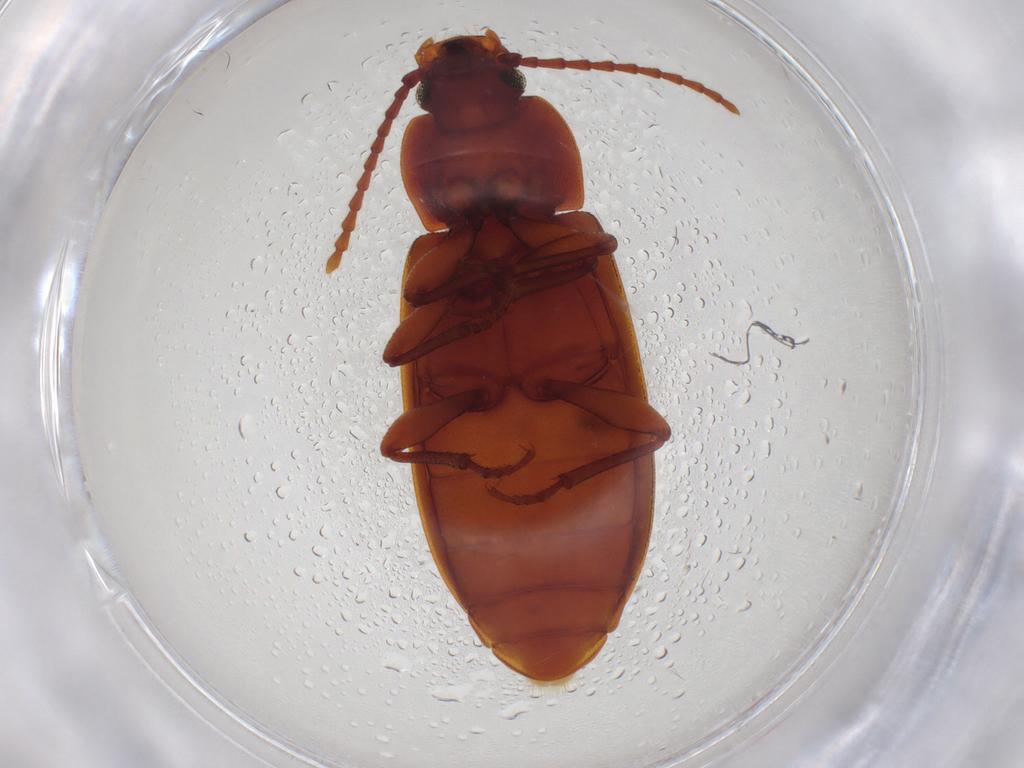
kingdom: Animalia
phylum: Arthropoda
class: Insecta
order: Coleoptera
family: Tenebrionidae
